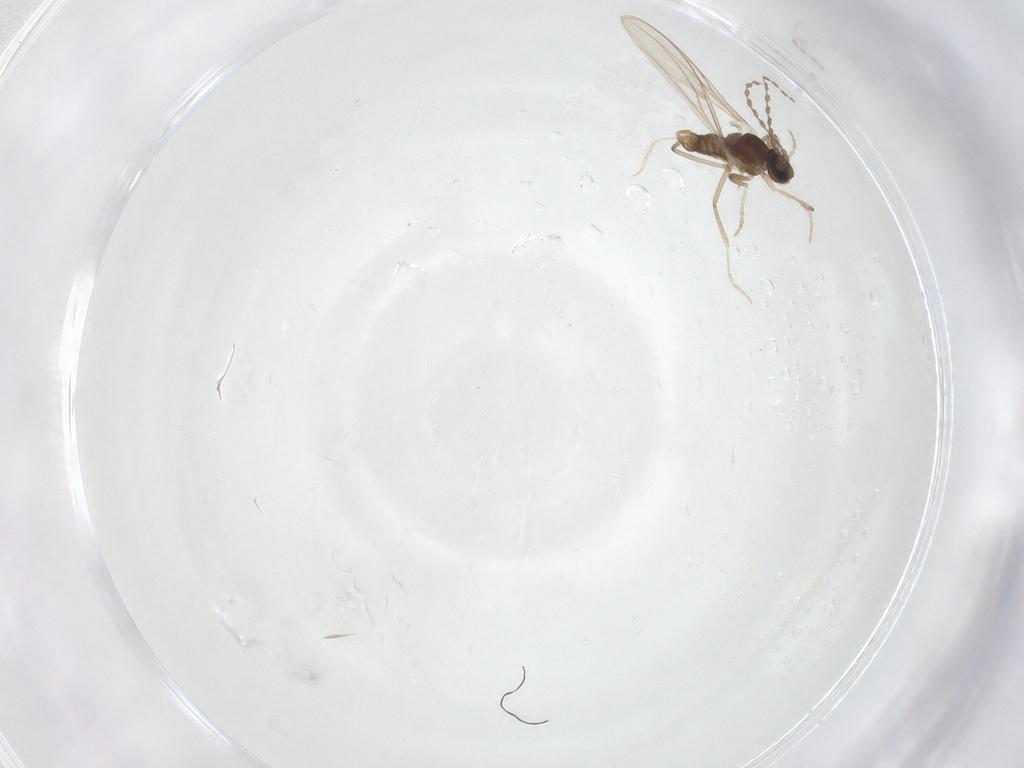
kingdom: Animalia
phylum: Arthropoda
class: Insecta
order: Diptera
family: Cecidomyiidae
